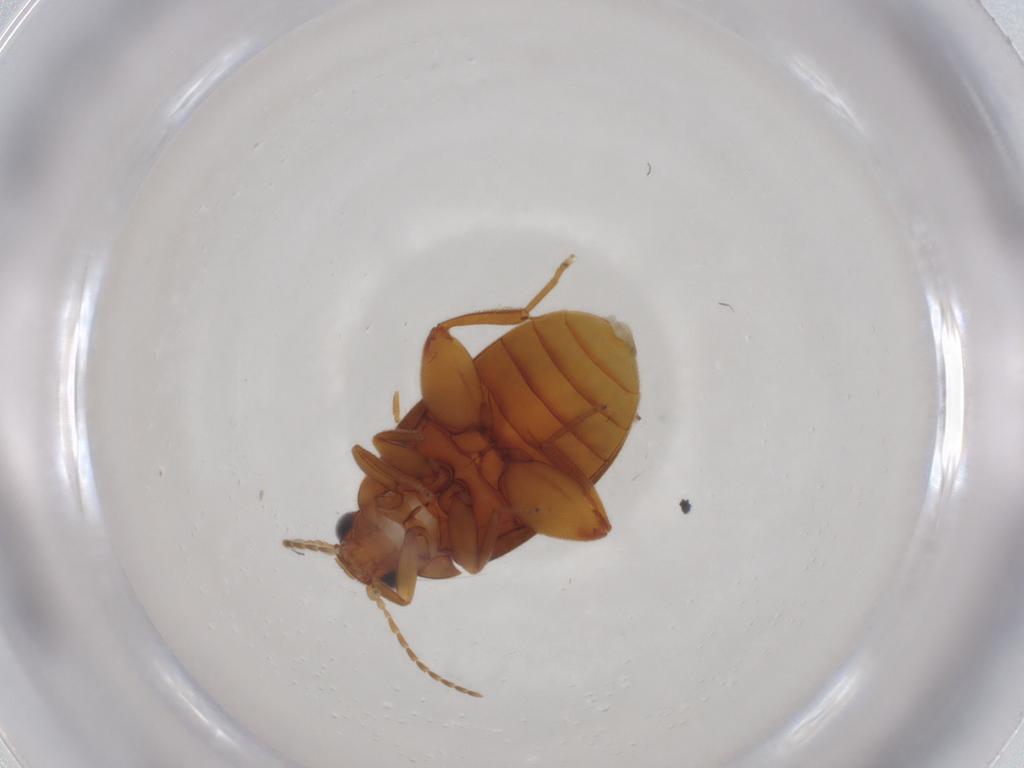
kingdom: Animalia
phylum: Arthropoda
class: Insecta
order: Coleoptera
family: Scirtidae
